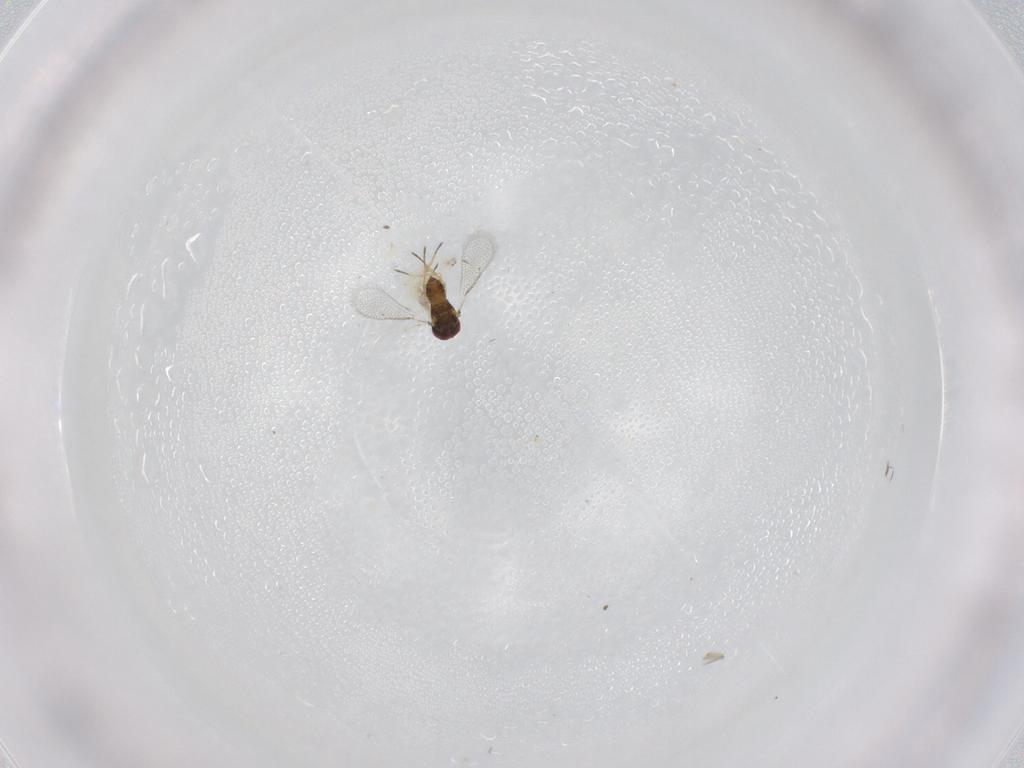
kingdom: Animalia
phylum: Arthropoda
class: Insecta
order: Hymenoptera
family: Eulophidae
